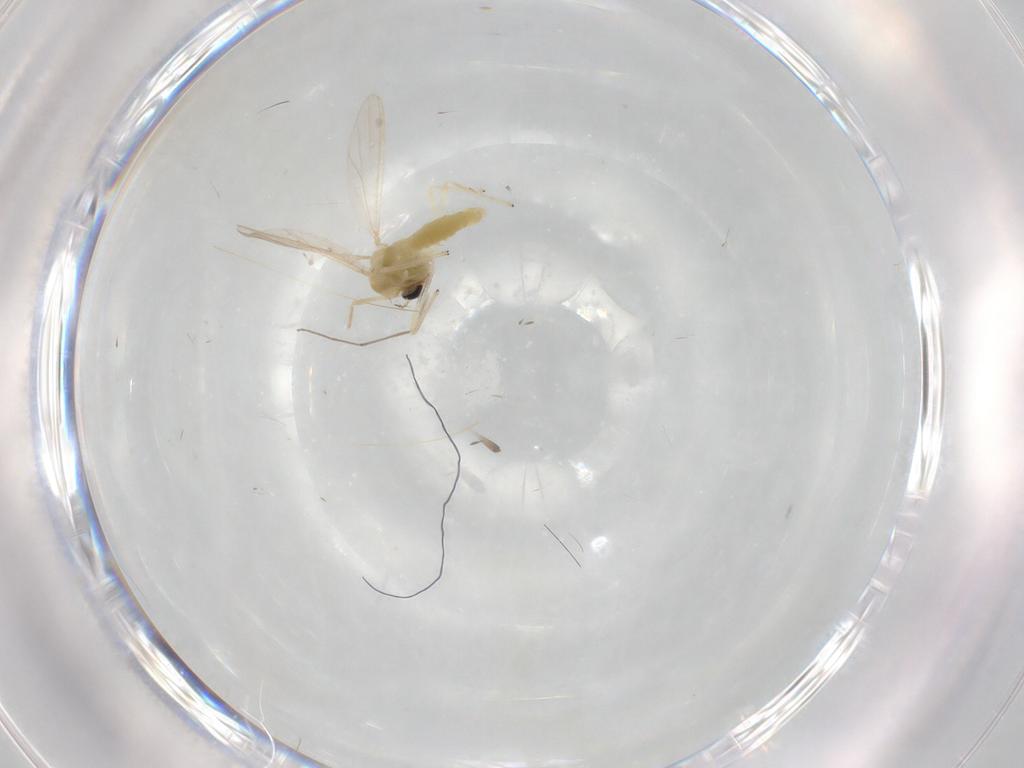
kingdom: Animalia
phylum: Arthropoda
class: Insecta
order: Diptera
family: Chironomidae
